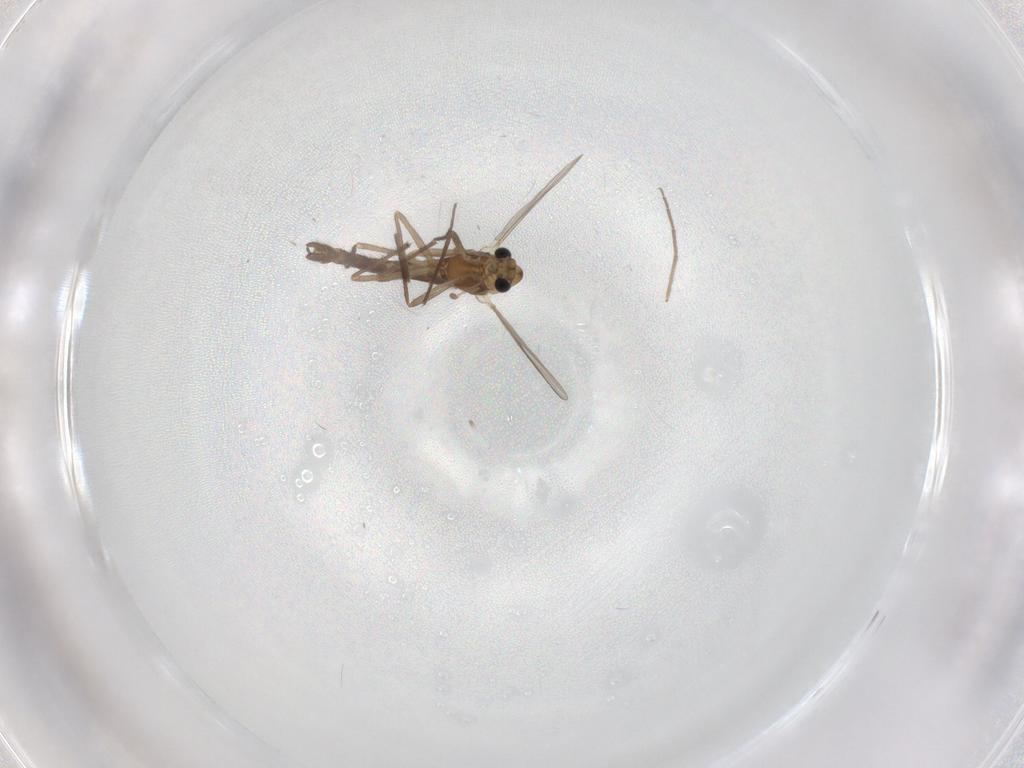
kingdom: Animalia
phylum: Arthropoda
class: Insecta
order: Diptera
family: Chironomidae
